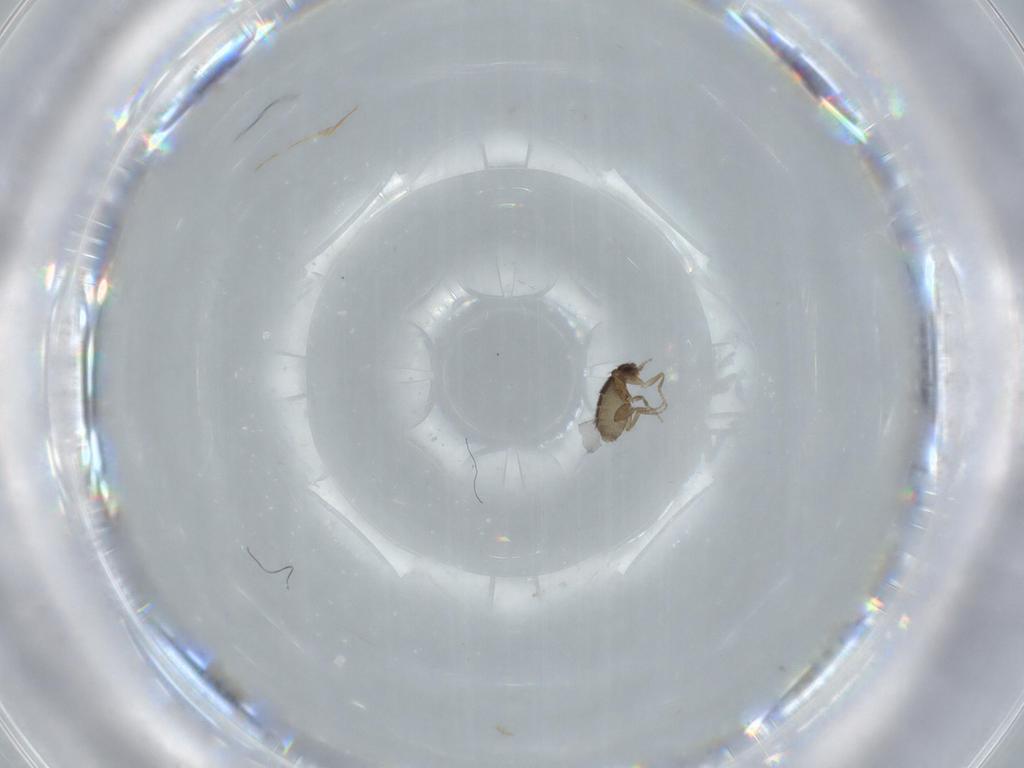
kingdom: Animalia
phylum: Arthropoda
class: Insecta
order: Diptera
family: Phoridae
